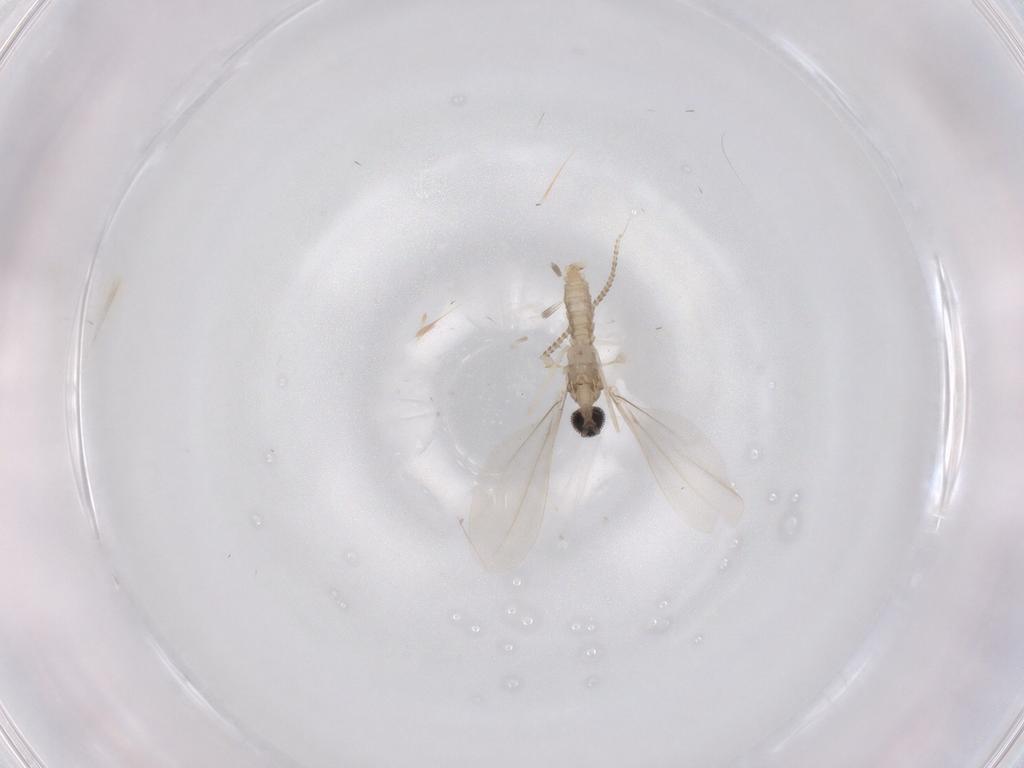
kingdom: Animalia
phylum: Arthropoda
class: Insecta
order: Diptera
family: Cecidomyiidae
